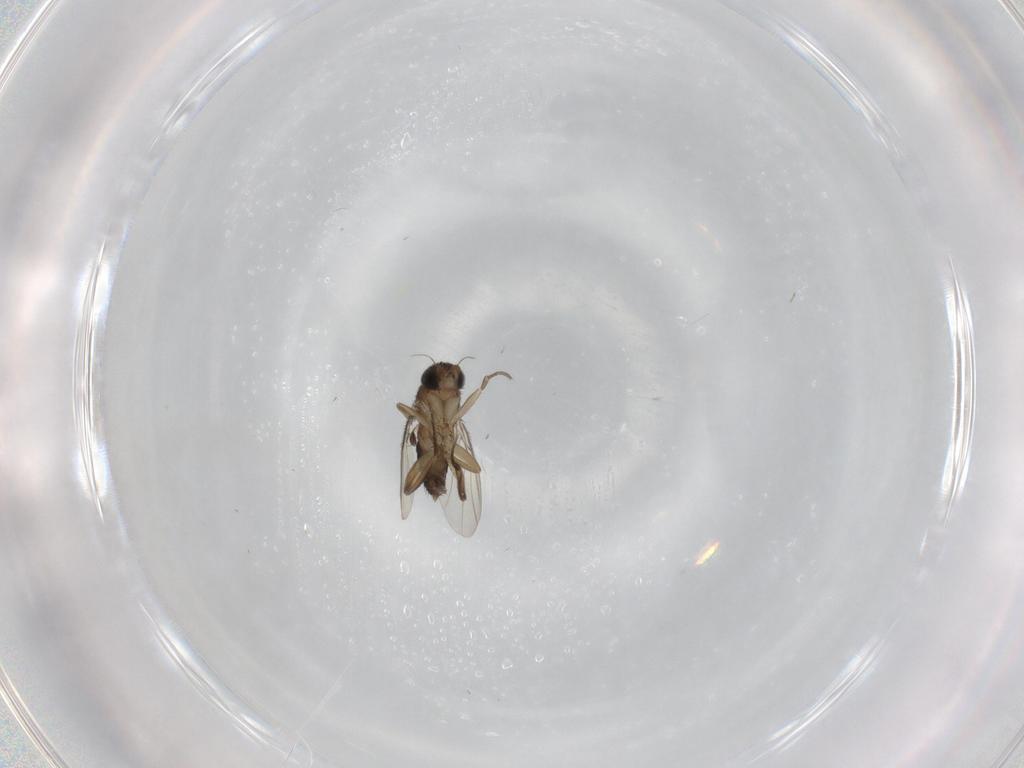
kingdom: Animalia
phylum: Arthropoda
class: Insecta
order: Diptera
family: Phoridae
